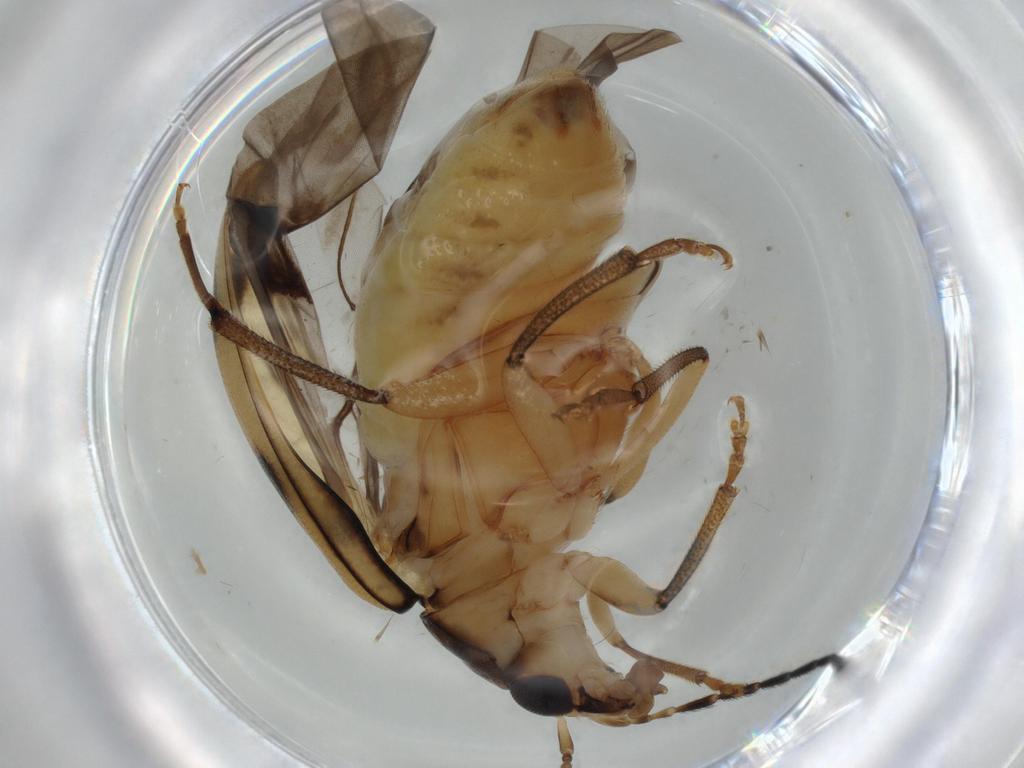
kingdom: Animalia
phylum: Arthropoda
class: Insecta
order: Coleoptera
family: Chrysomelidae
